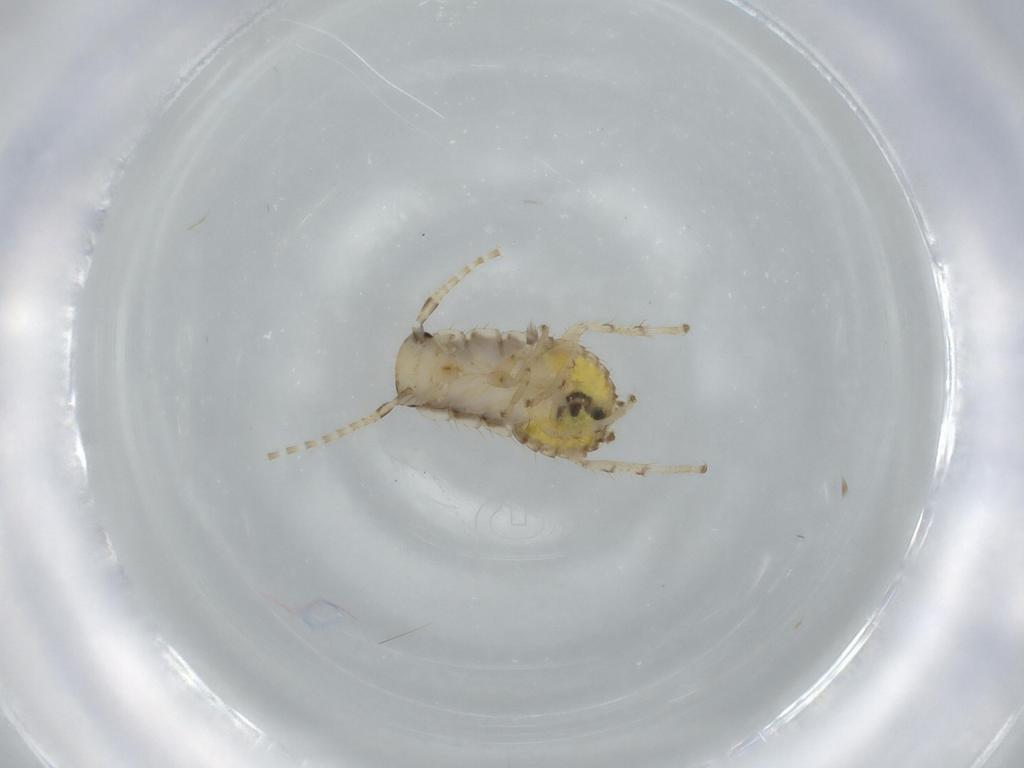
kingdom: Animalia
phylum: Arthropoda
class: Insecta
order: Blattodea
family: Ectobiidae
